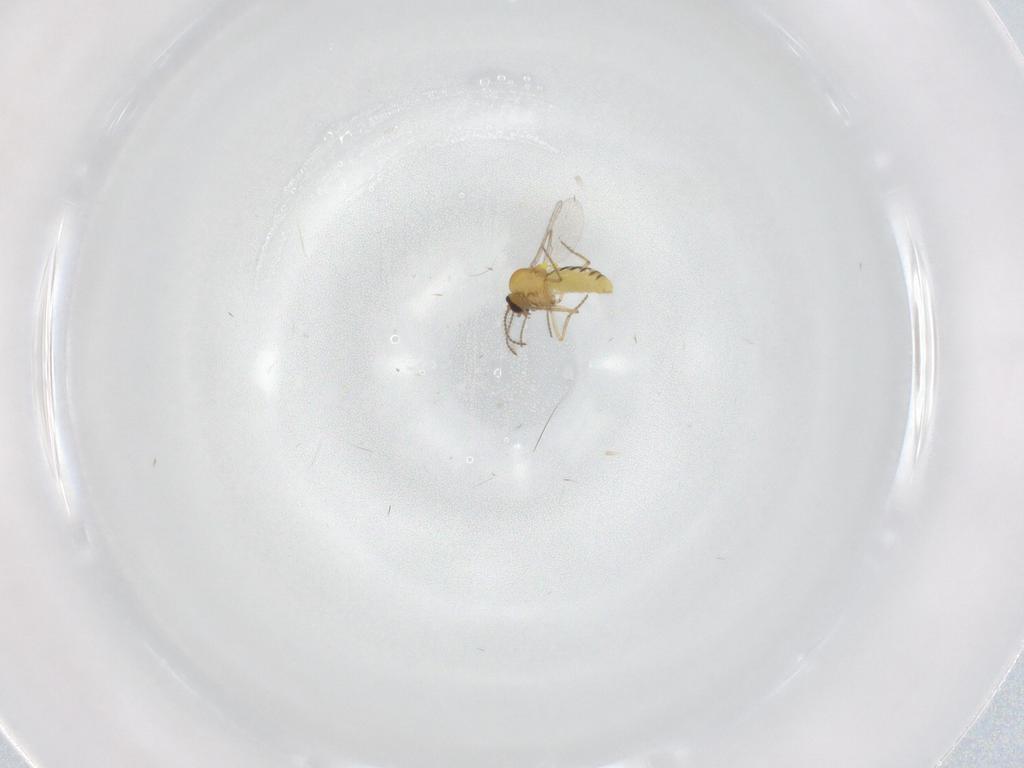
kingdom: Animalia
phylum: Arthropoda
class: Insecta
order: Diptera
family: Ceratopogonidae
